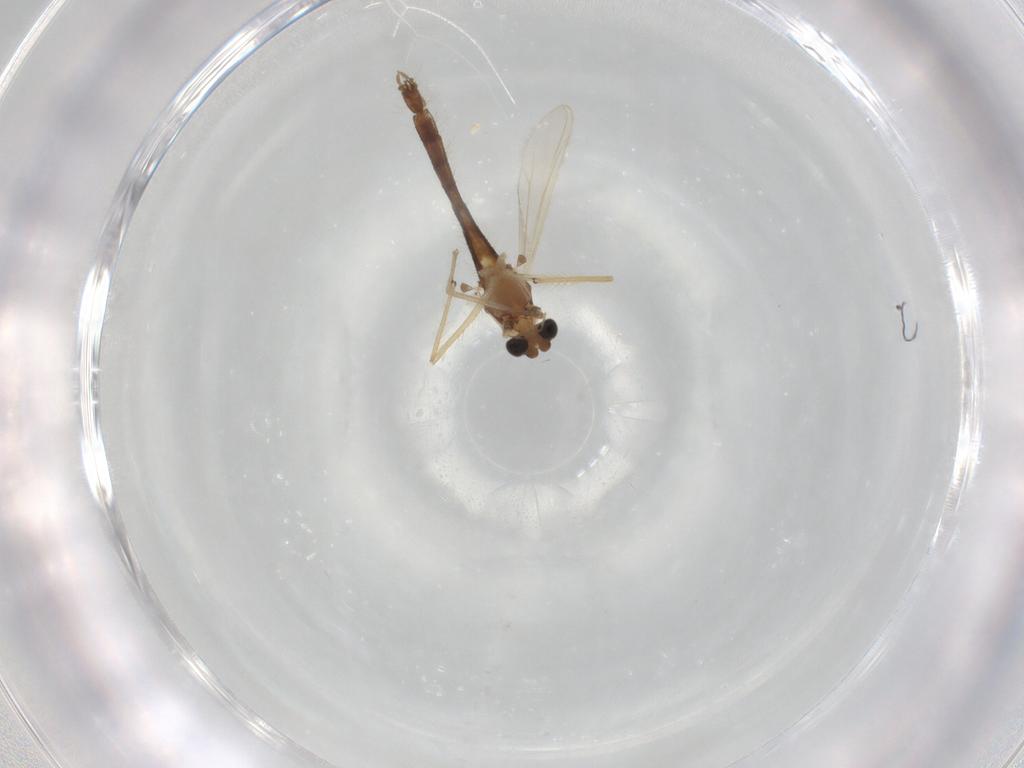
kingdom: Animalia
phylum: Arthropoda
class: Insecta
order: Diptera
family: Chironomidae
